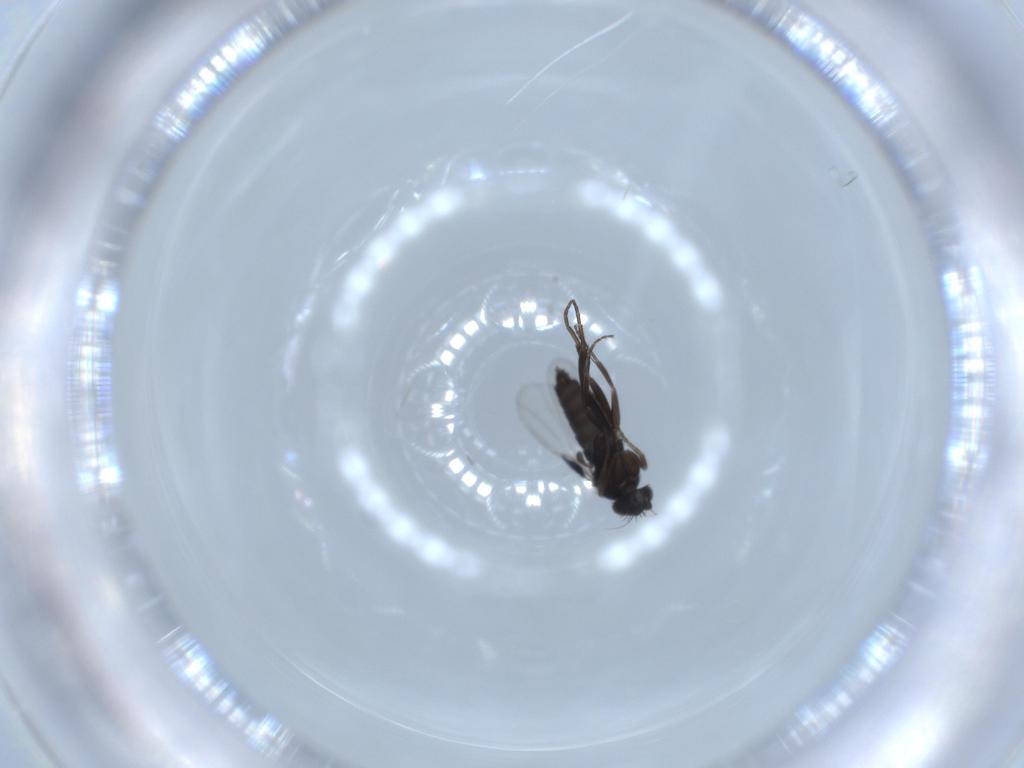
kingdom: Animalia
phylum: Arthropoda
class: Insecta
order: Diptera
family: Phoridae
